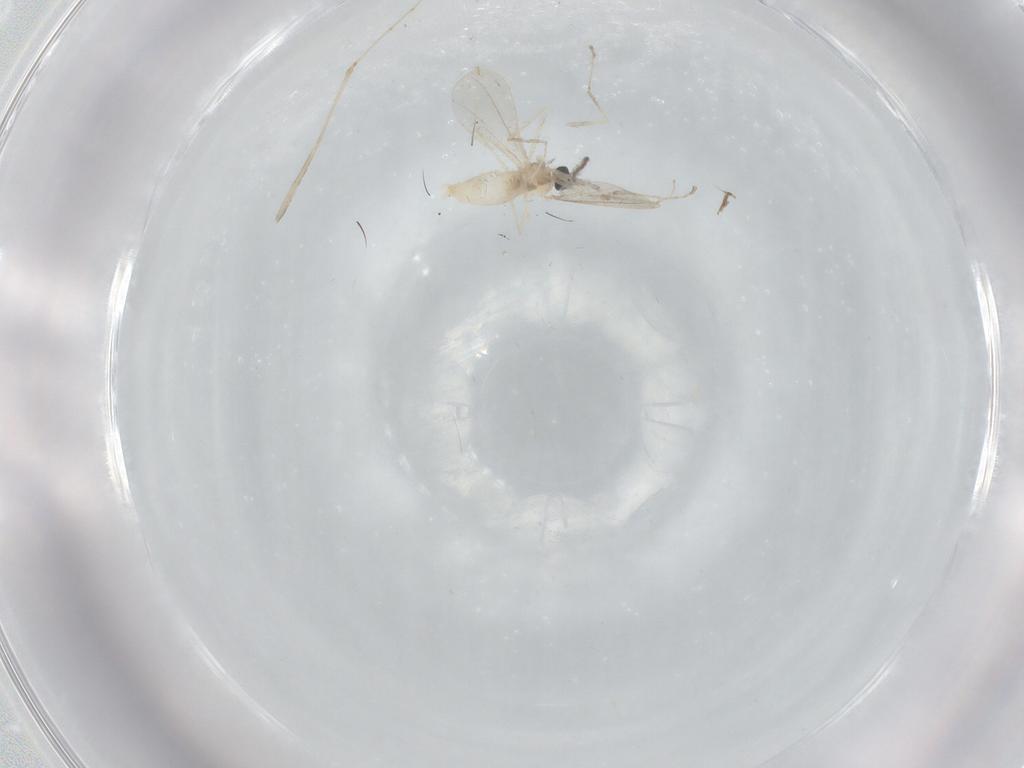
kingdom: Animalia
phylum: Arthropoda
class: Insecta
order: Diptera
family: Cecidomyiidae
